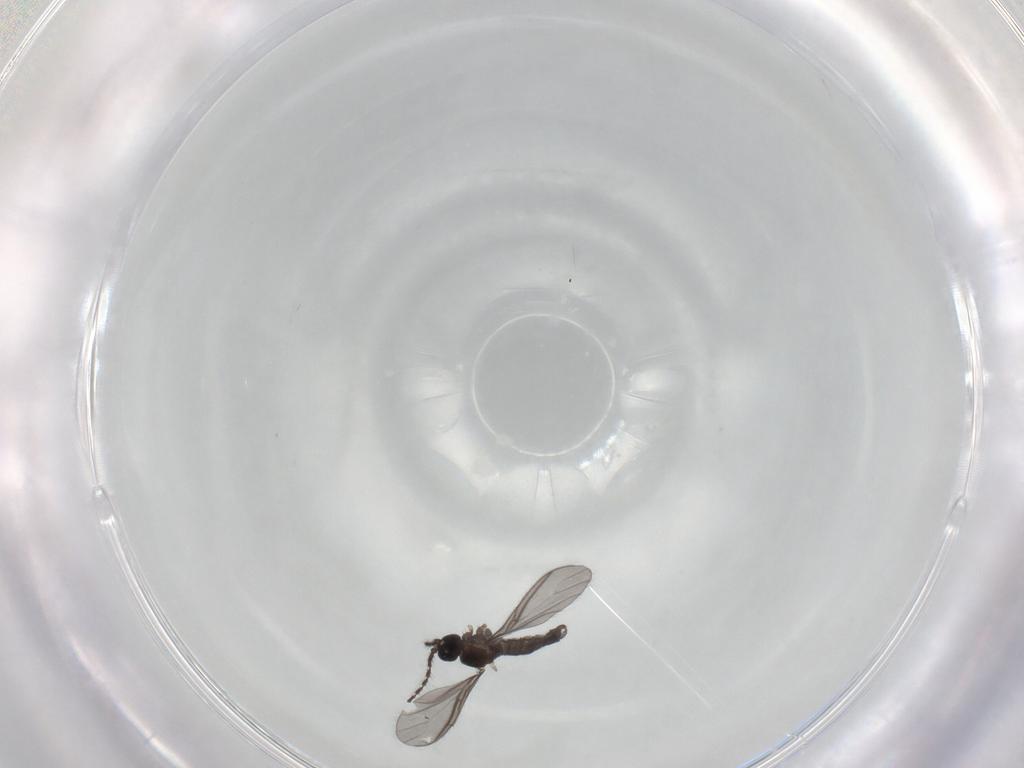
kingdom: Animalia
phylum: Arthropoda
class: Insecta
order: Diptera
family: Sciaridae
